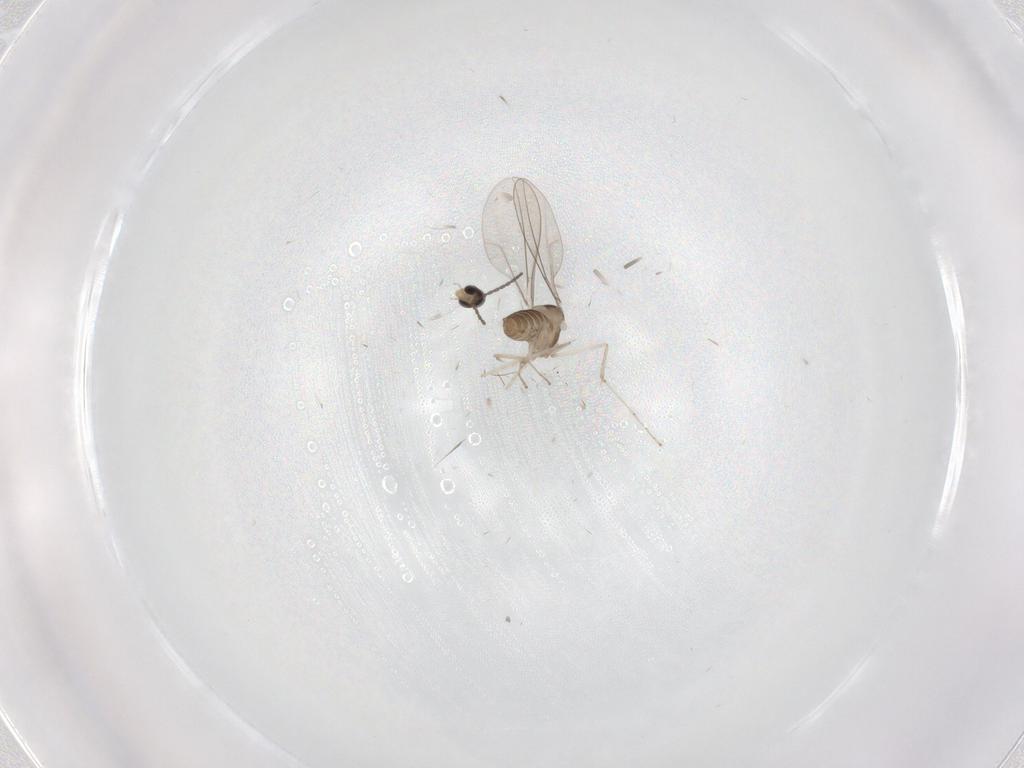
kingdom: Animalia
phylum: Arthropoda
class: Insecta
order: Diptera
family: Cecidomyiidae
